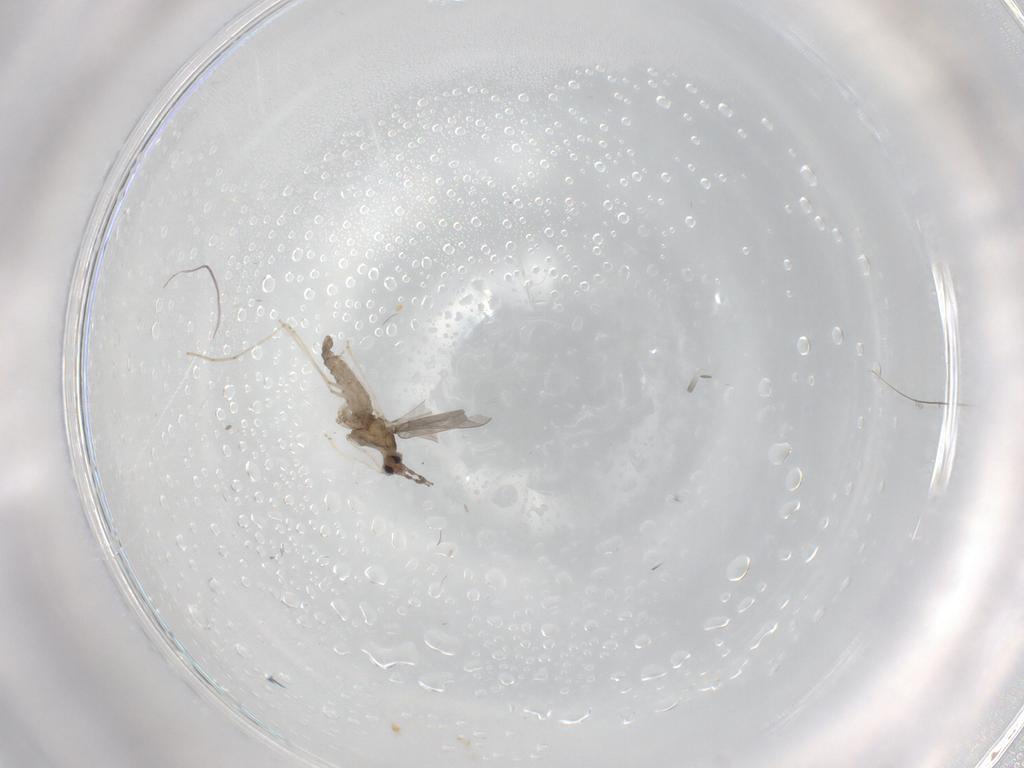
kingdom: Animalia
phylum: Arthropoda
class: Insecta
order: Diptera
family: Cecidomyiidae
